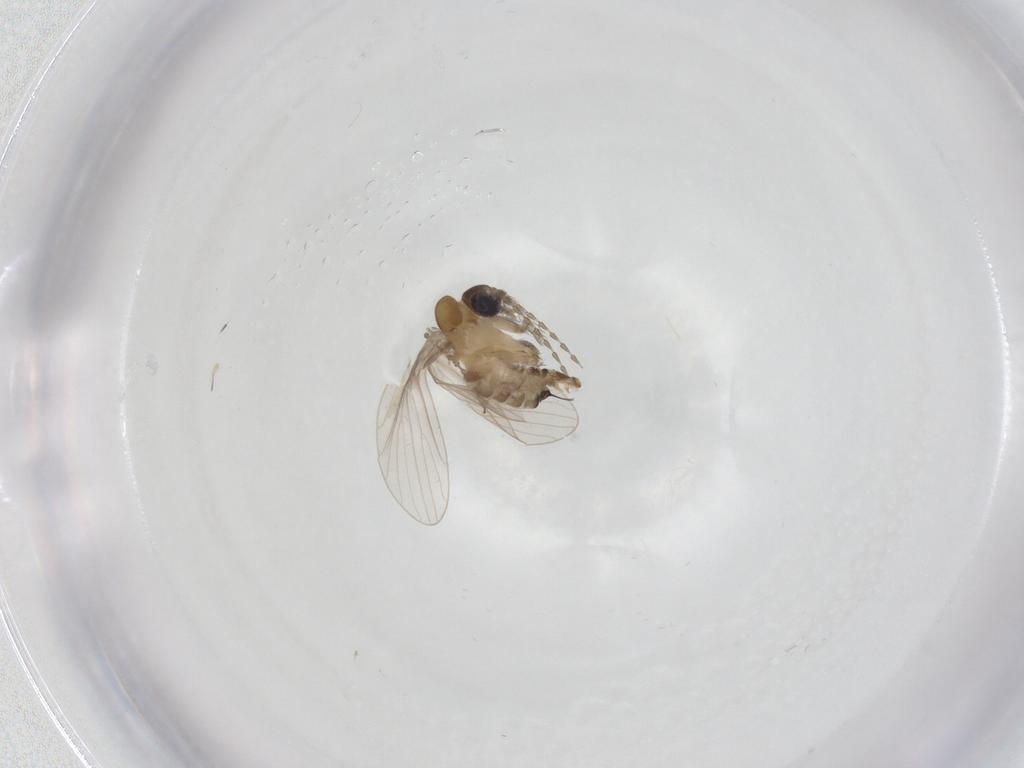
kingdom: Animalia
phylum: Arthropoda
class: Insecta
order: Diptera
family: Psychodidae
